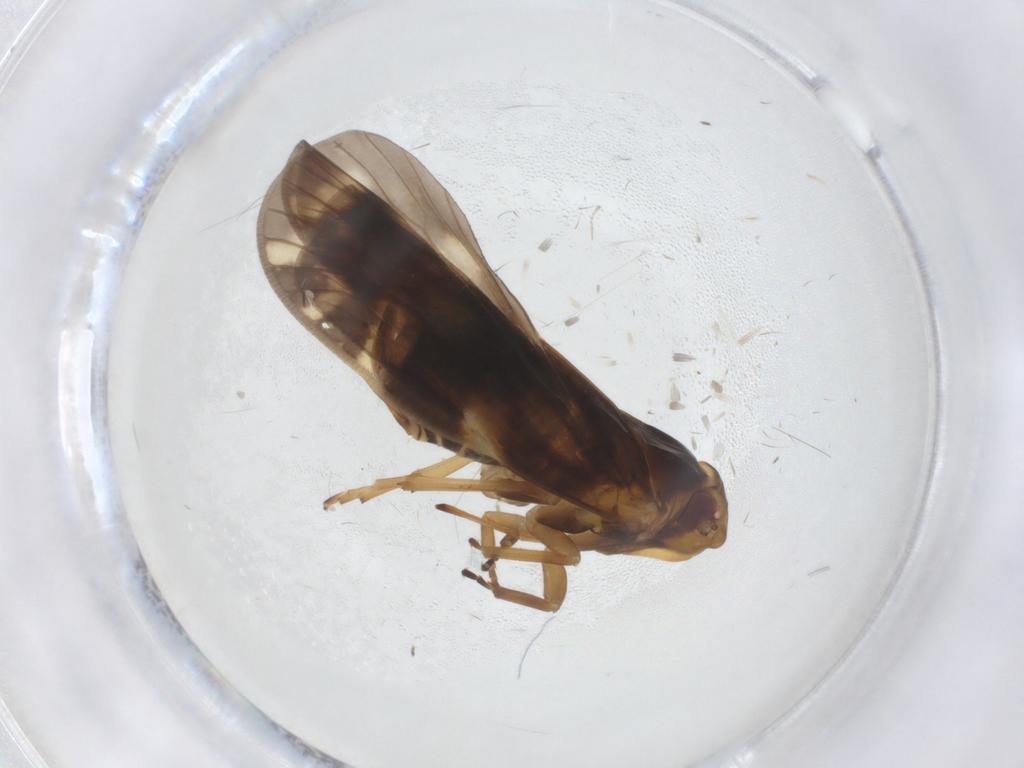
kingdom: Animalia
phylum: Arthropoda
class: Insecta
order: Hemiptera
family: Cixiidae
